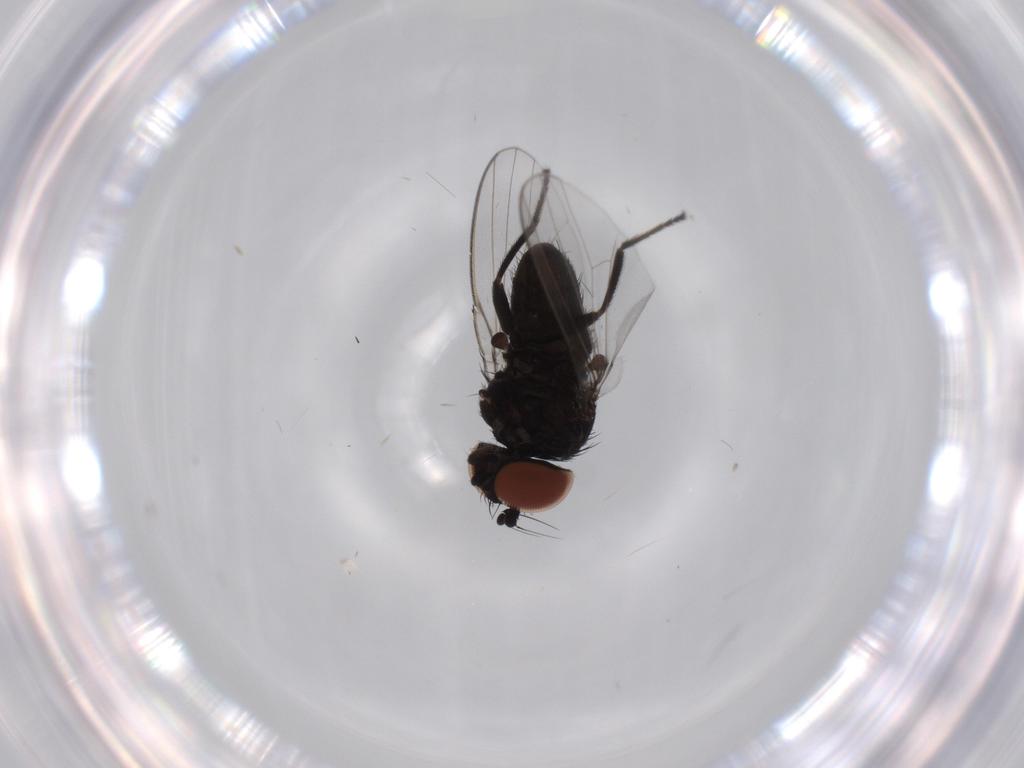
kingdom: Animalia
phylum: Arthropoda
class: Insecta
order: Diptera
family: Milichiidae
